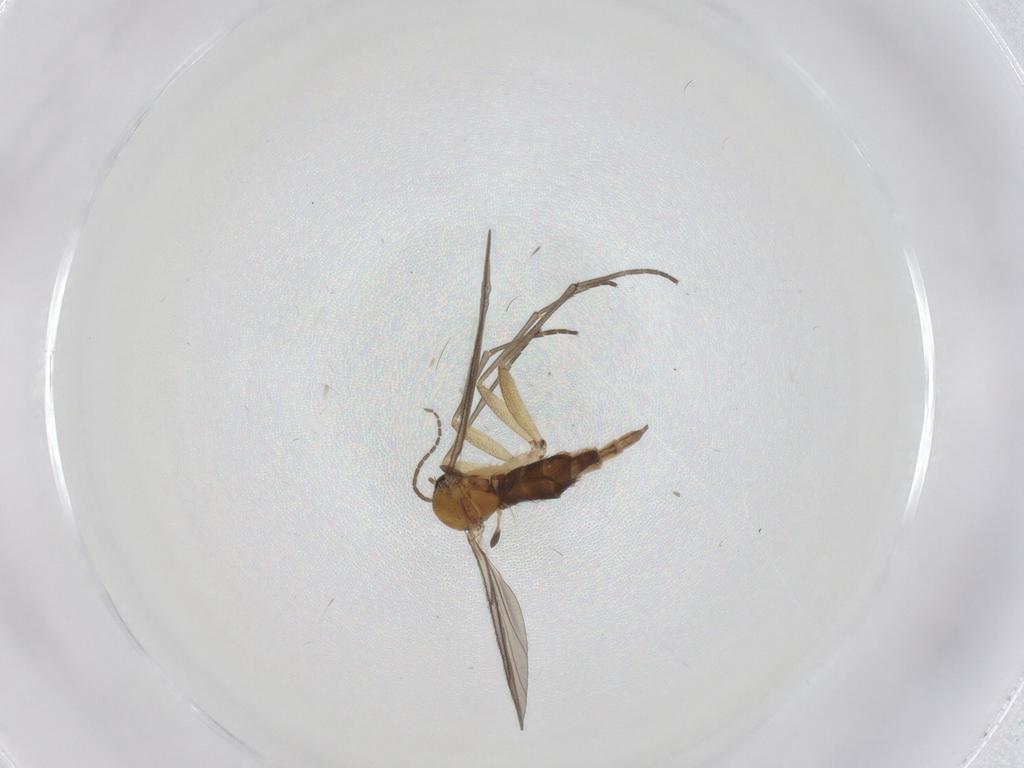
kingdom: Animalia
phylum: Arthropoda
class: Insecta
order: Diptera
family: Sciaridae
